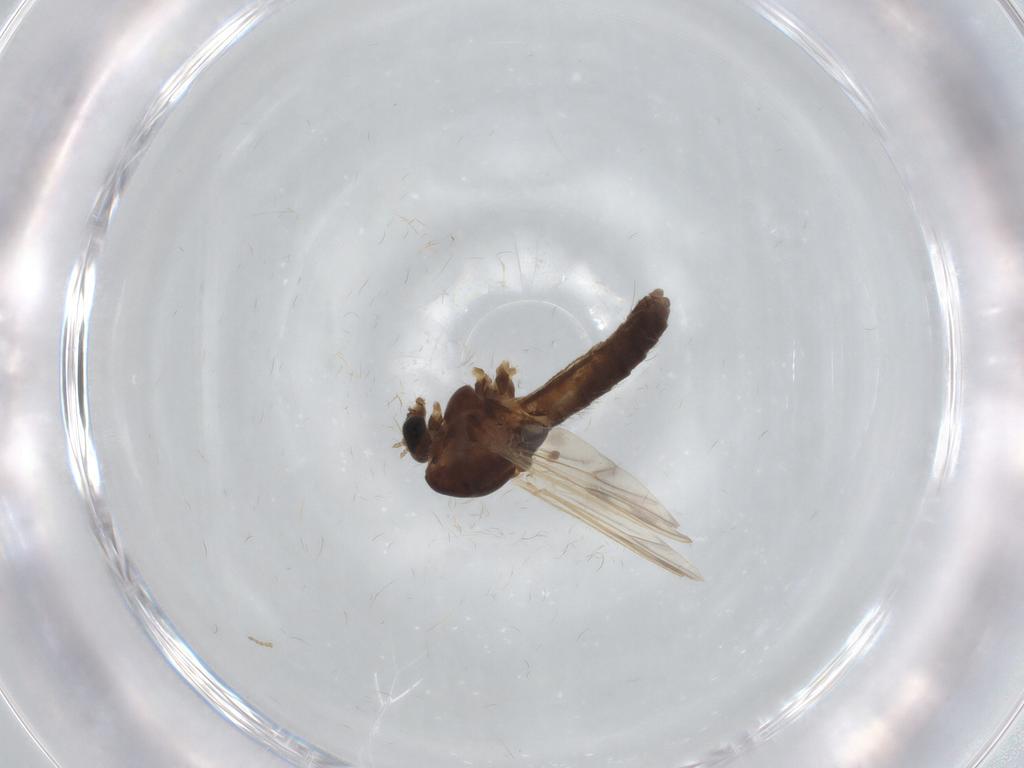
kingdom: Animalia
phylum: Arthropoda
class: Insecta
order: Diptera
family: Chironomidae
